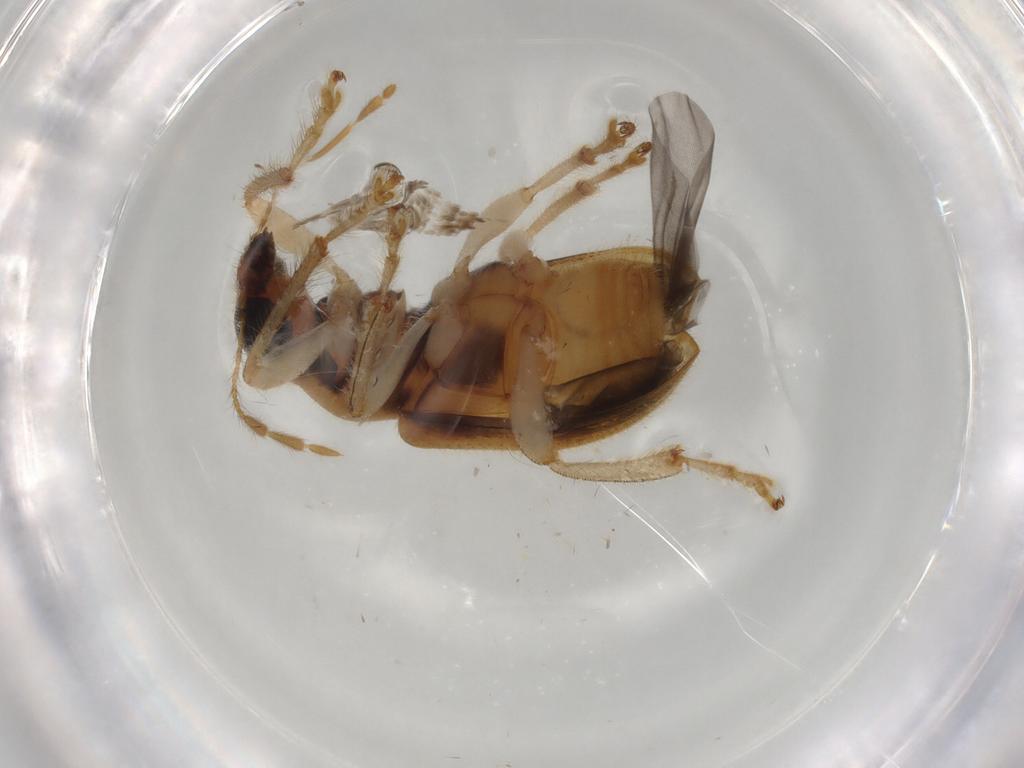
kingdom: Animalia
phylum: Arthropoda
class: Insecta
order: Coleoptera
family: Attelabidae
